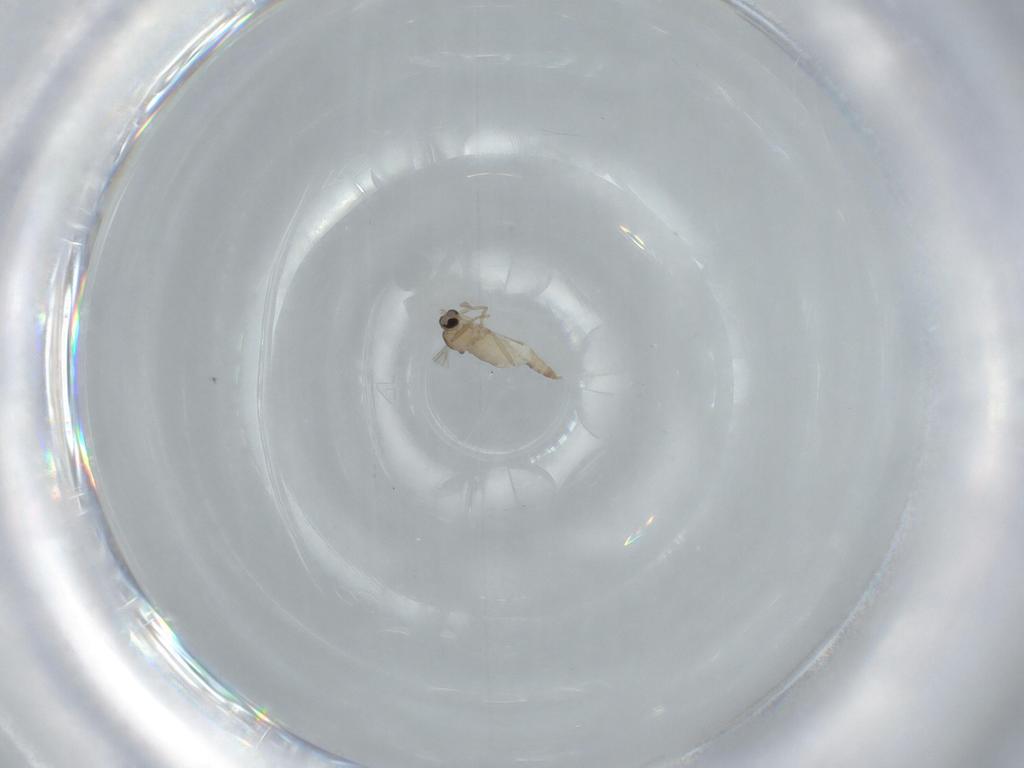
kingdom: Animalia
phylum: Arthropoda
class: Insecta
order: Diptera
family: Cecidomyiidae
